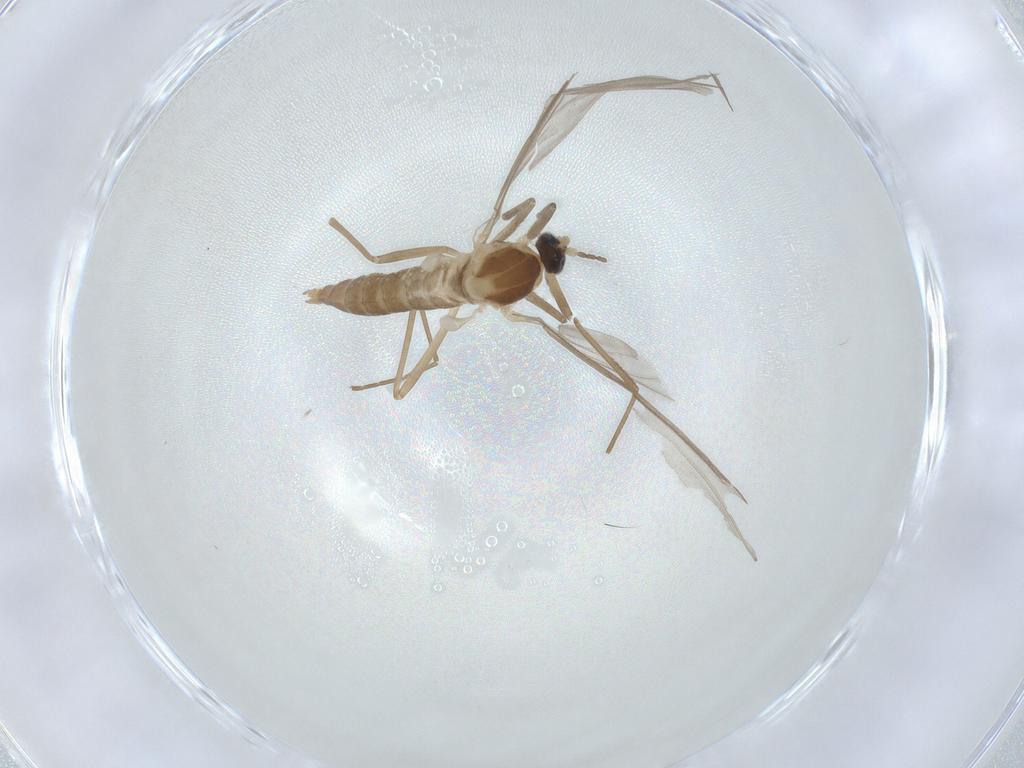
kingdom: Animalia
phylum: Arthropoda
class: Insecta
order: Diptera
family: Cecidomyiidae
